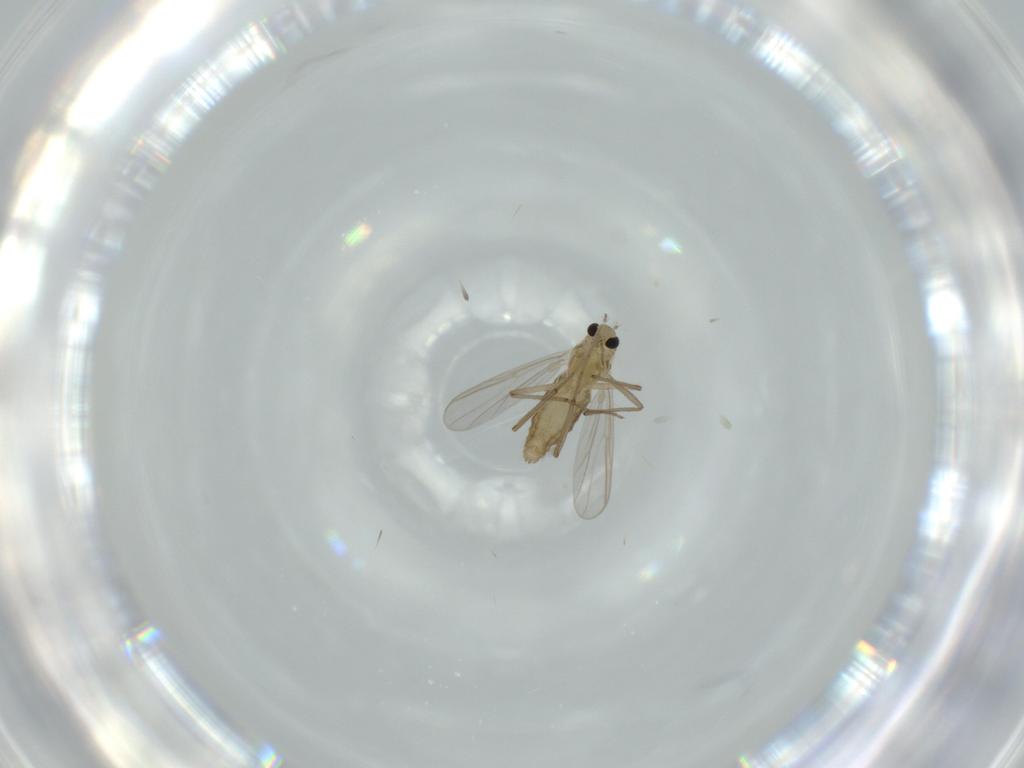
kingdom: Animalia
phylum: Arthropoda
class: Insecta
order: Diptera
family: Chironomidae
